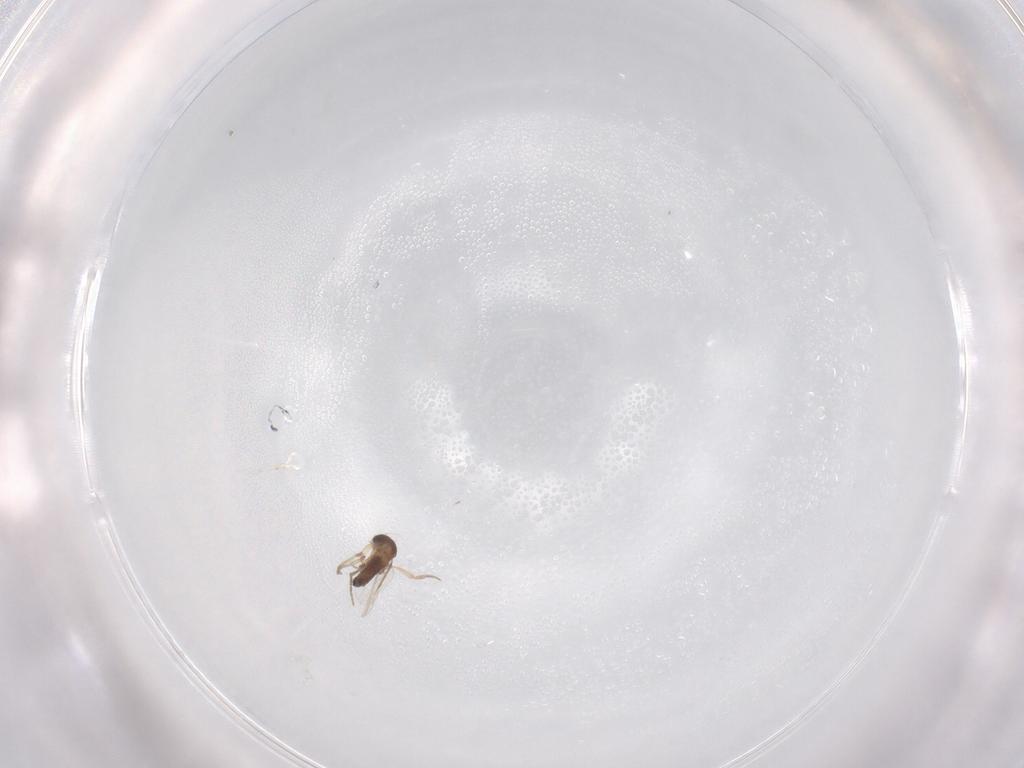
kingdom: Animalia
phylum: Arthropoda
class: Insecta
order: Diptera
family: Phoridae
